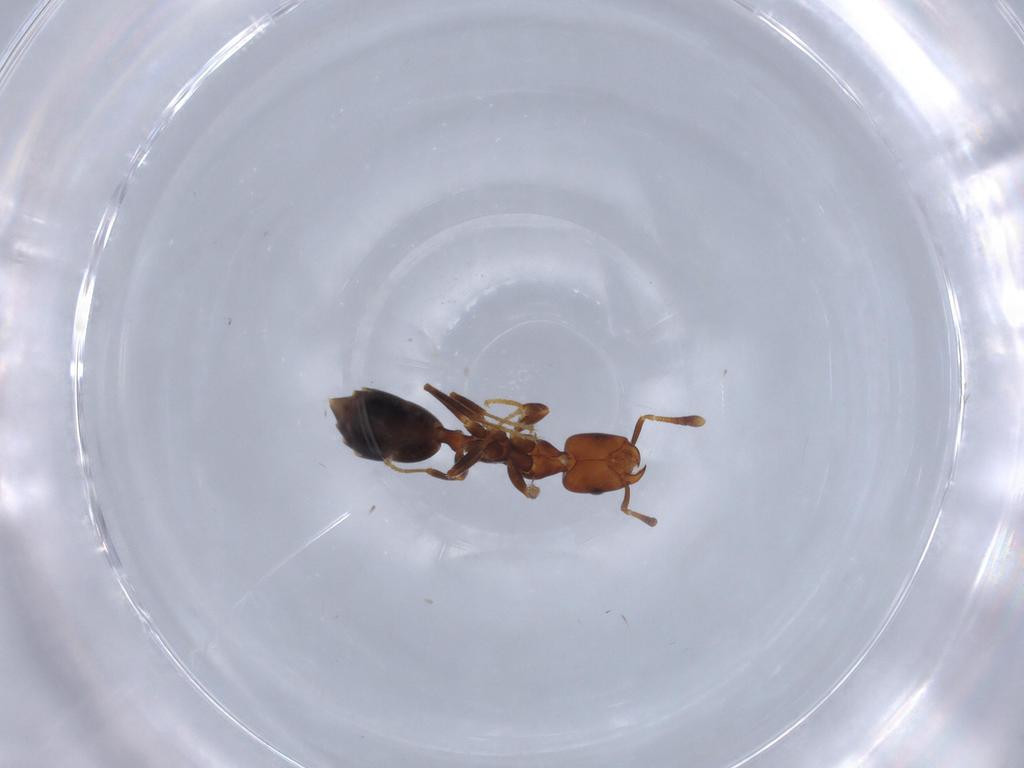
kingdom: Animalia
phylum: Arthropoda
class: Insecta
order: Hymenoptera
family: Formicidae
